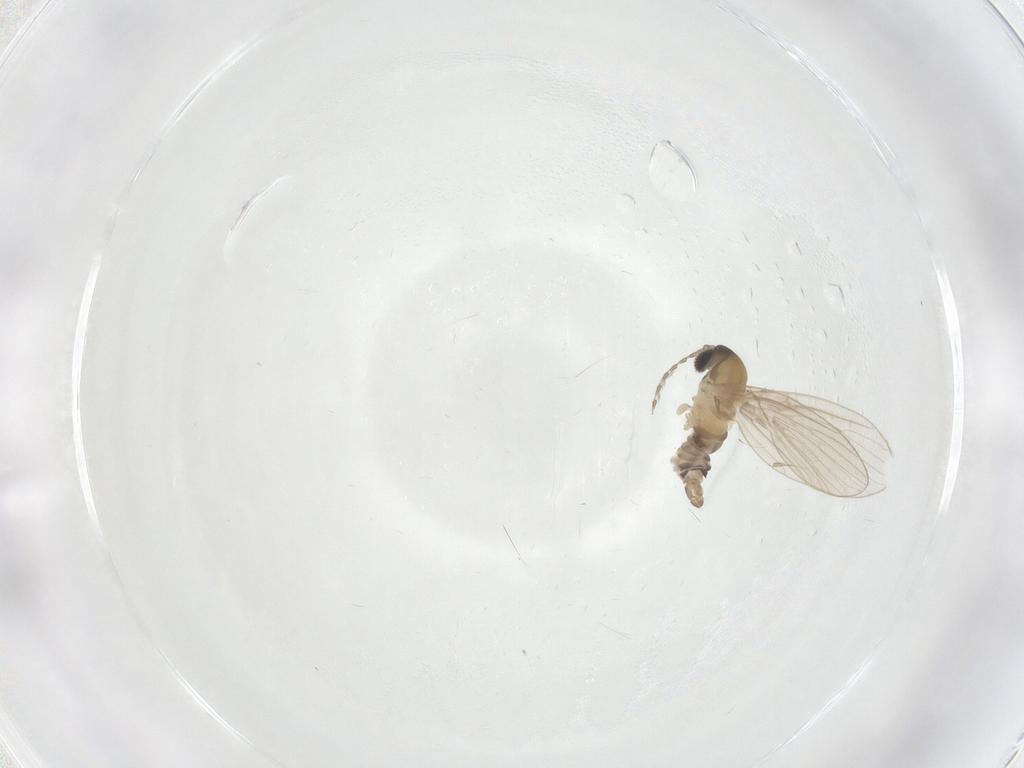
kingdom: Animalia
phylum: Arthropoda
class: Insecta
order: Diptera
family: Psychodidae
